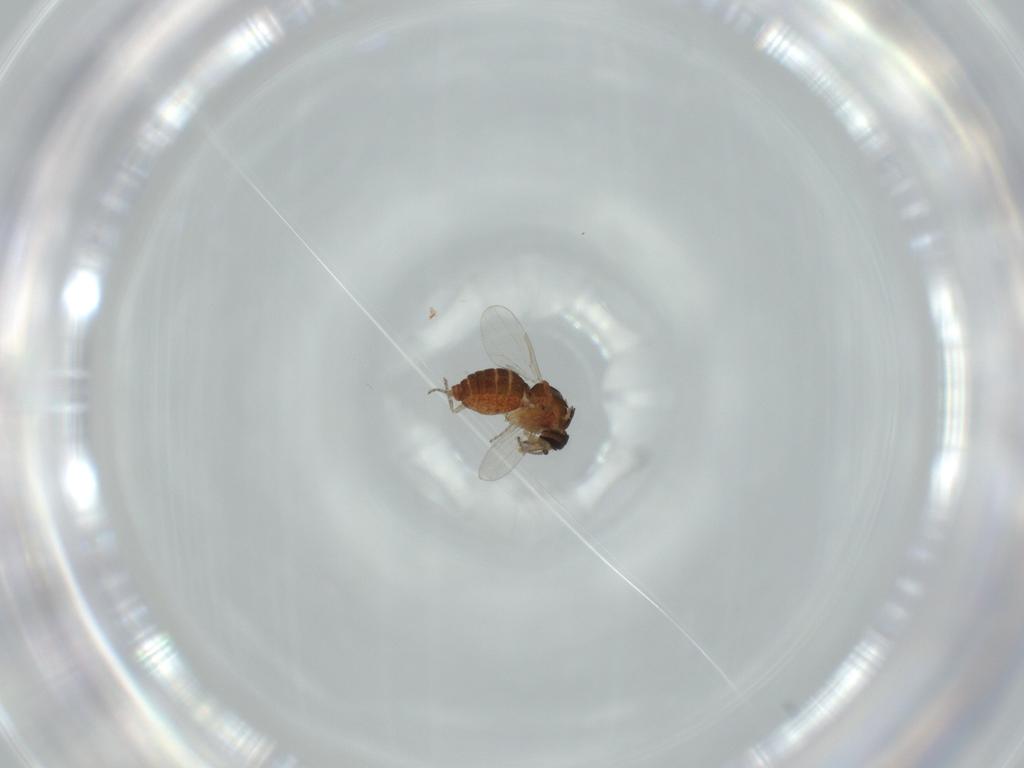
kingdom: Animalia
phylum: Arthropoda
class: Insecta
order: Diptera
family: Ceratopogonidae
